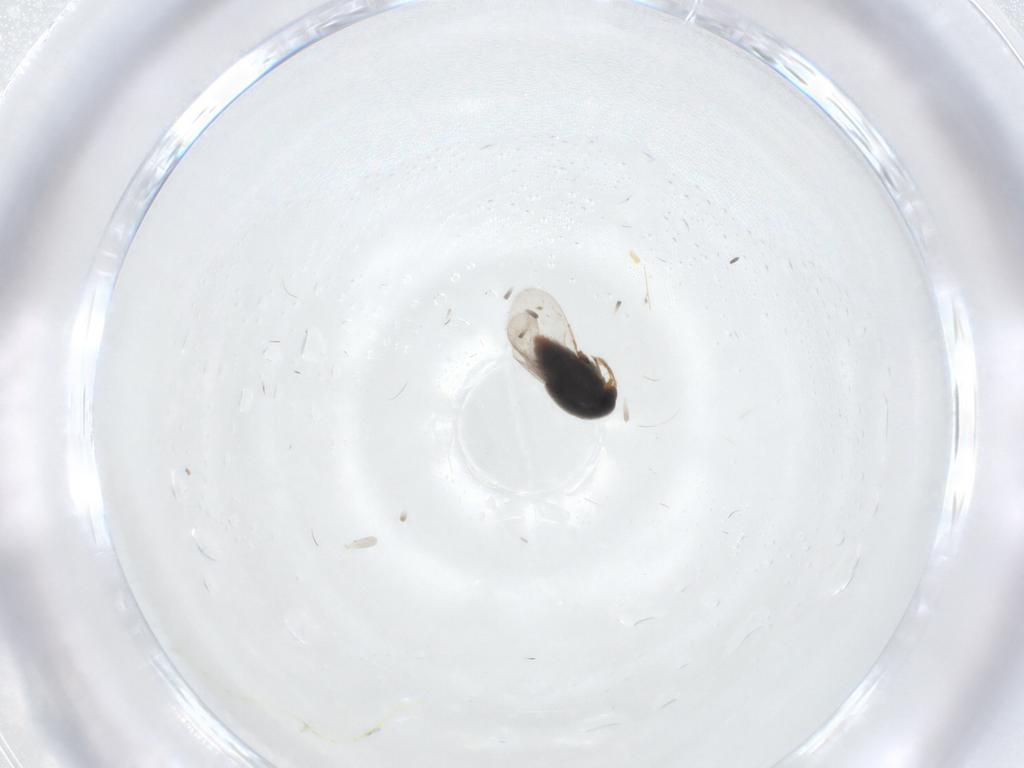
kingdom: Animalia
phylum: Arthropoda
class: Insecta
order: Coleoptera
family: Staphylinidae
